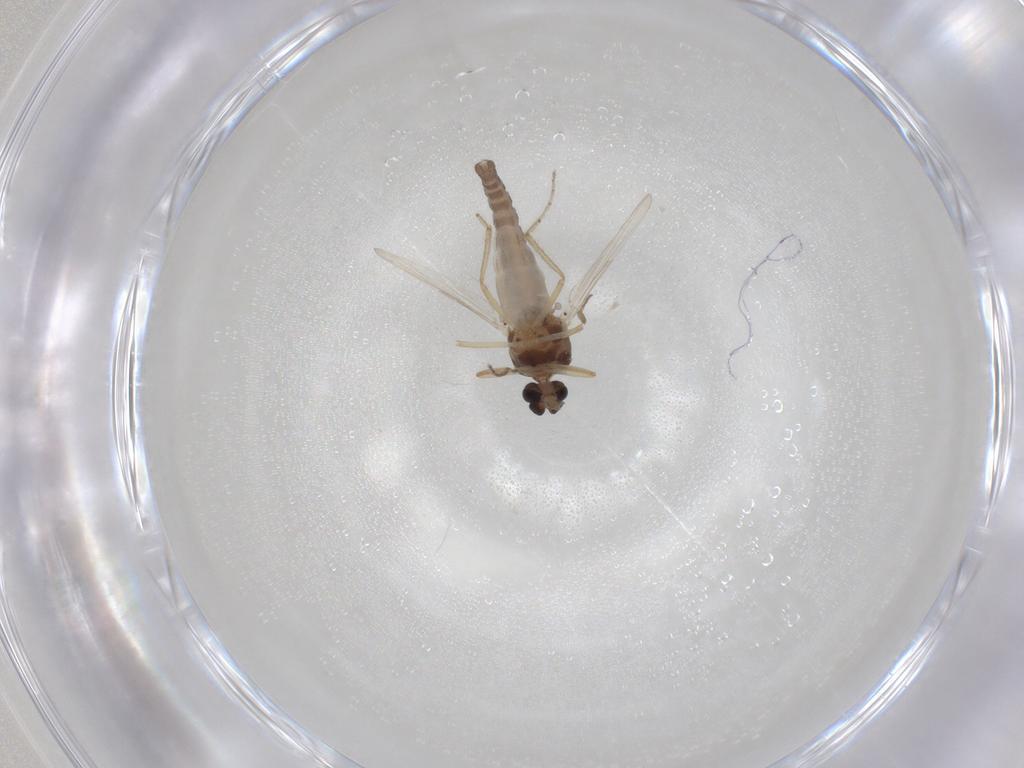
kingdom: Animalia
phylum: Arthropoda
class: Insecta
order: Diptera
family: Ceratopogonidae
